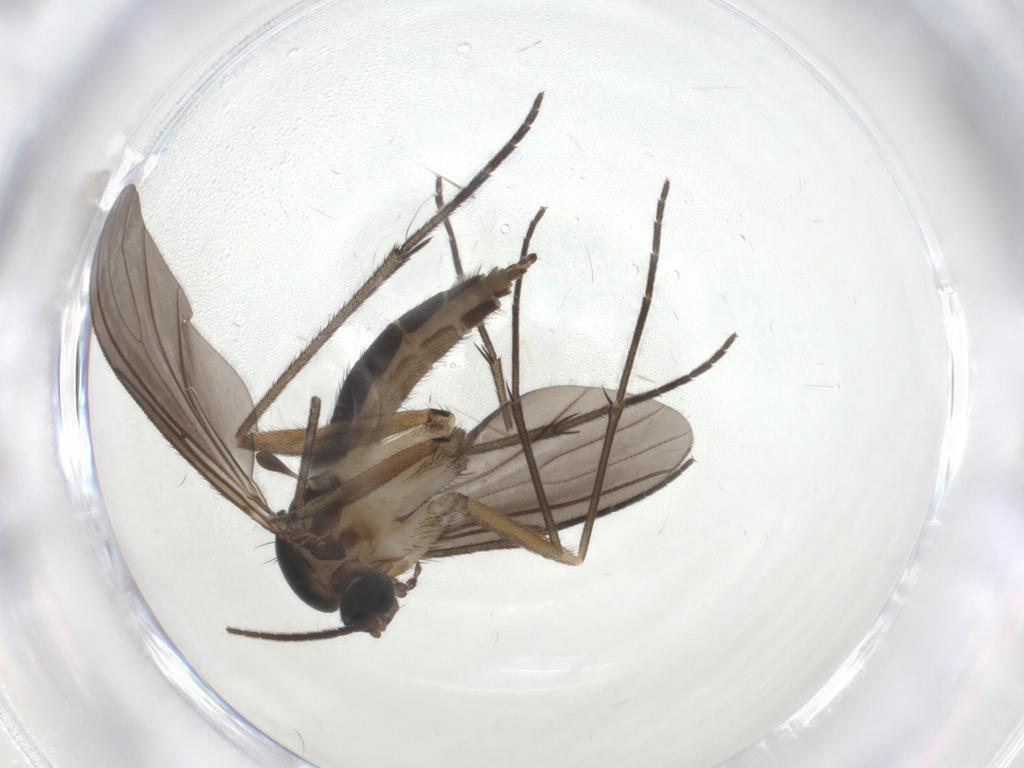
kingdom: Animalia
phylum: Arthropoda
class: Insecta
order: Diptera
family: Sciaridae
